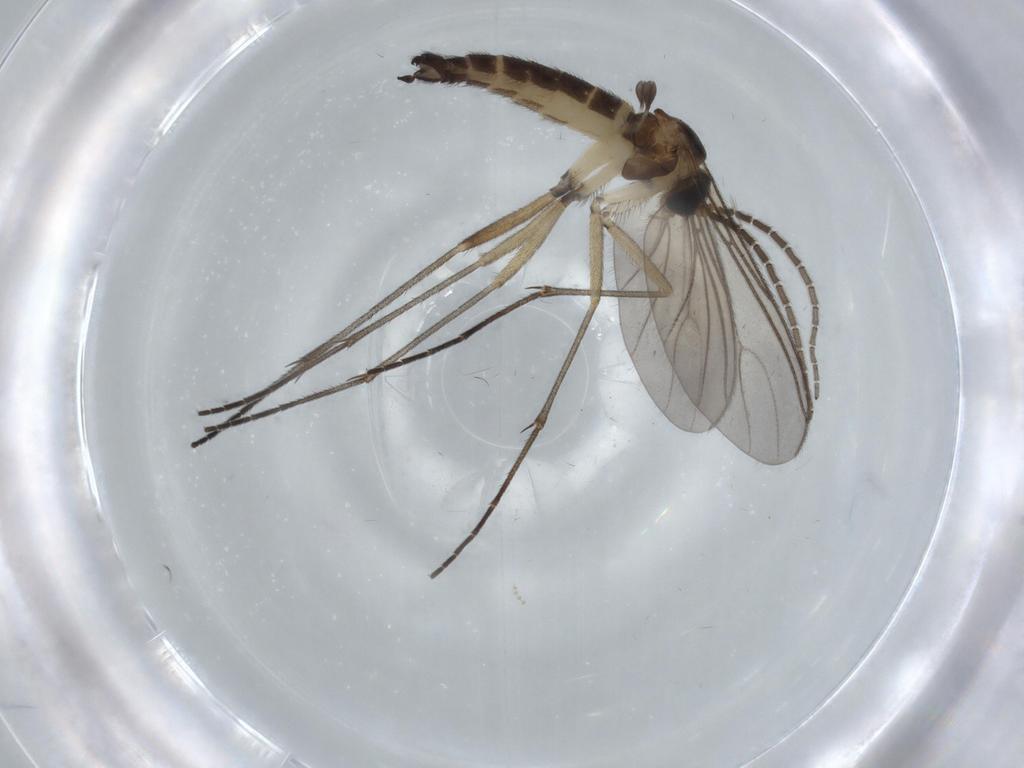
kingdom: Animalia
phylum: Arthropoda
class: Insecta
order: Diptera
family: Sciaridae
